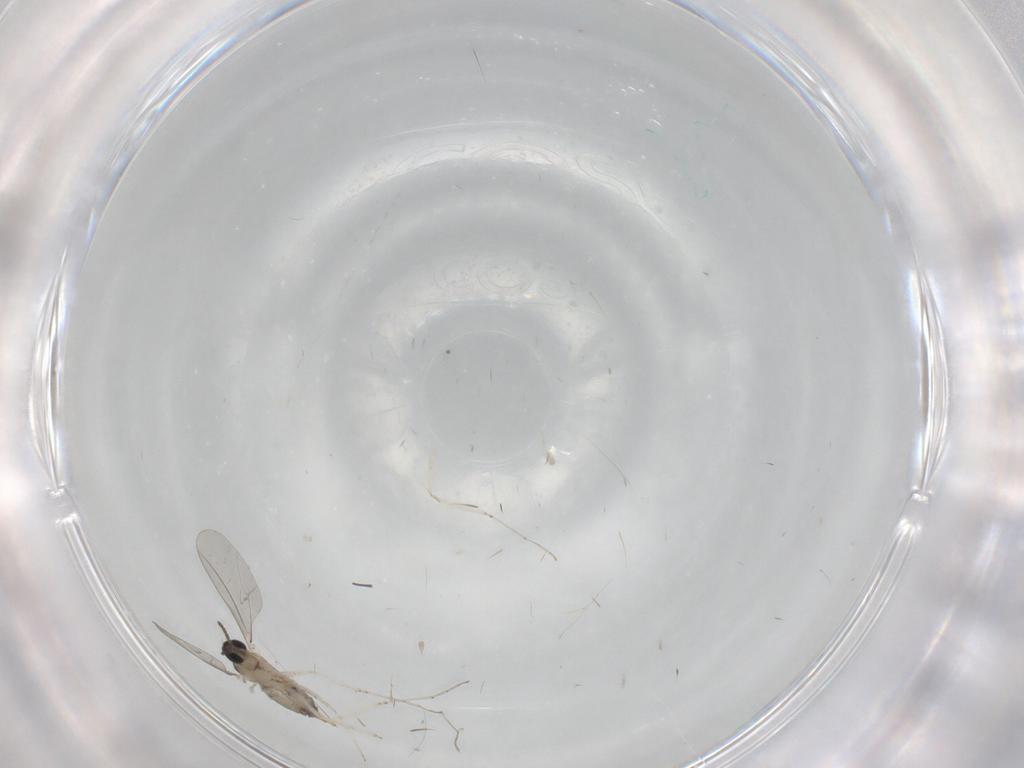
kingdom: Animalia
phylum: Arthropoda
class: Insecta
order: Diptera
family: Cecidomyiidae
